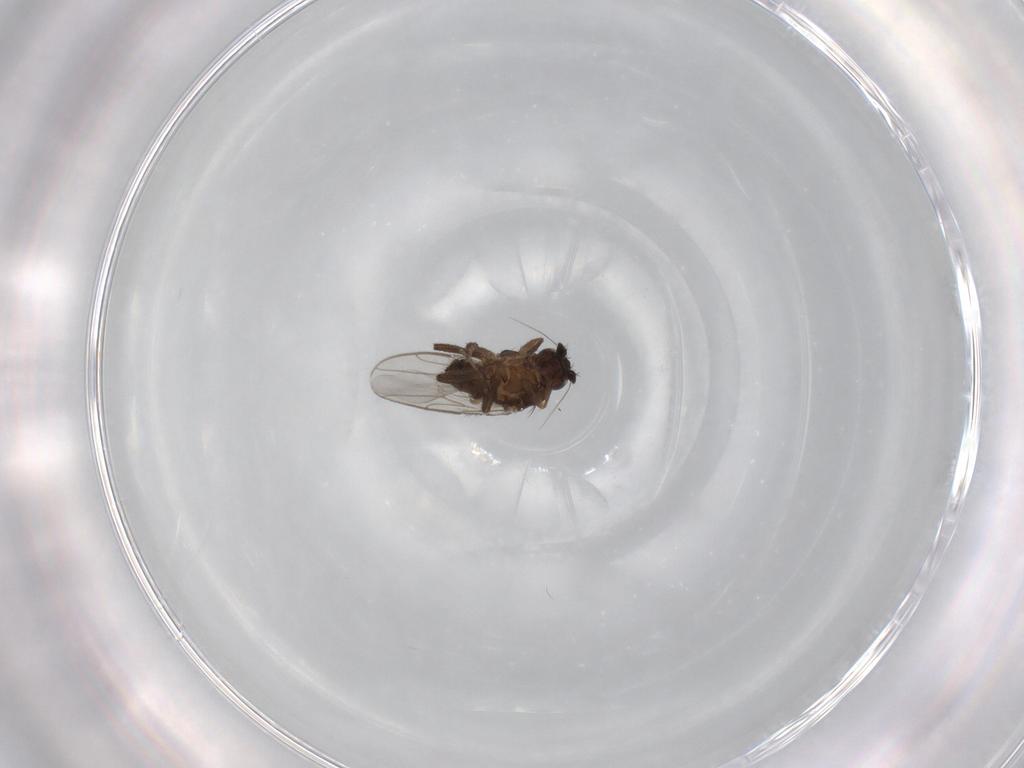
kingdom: Animalia
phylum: Arthropoda
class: Insecta
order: Diptera
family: Sphaeroceridae
